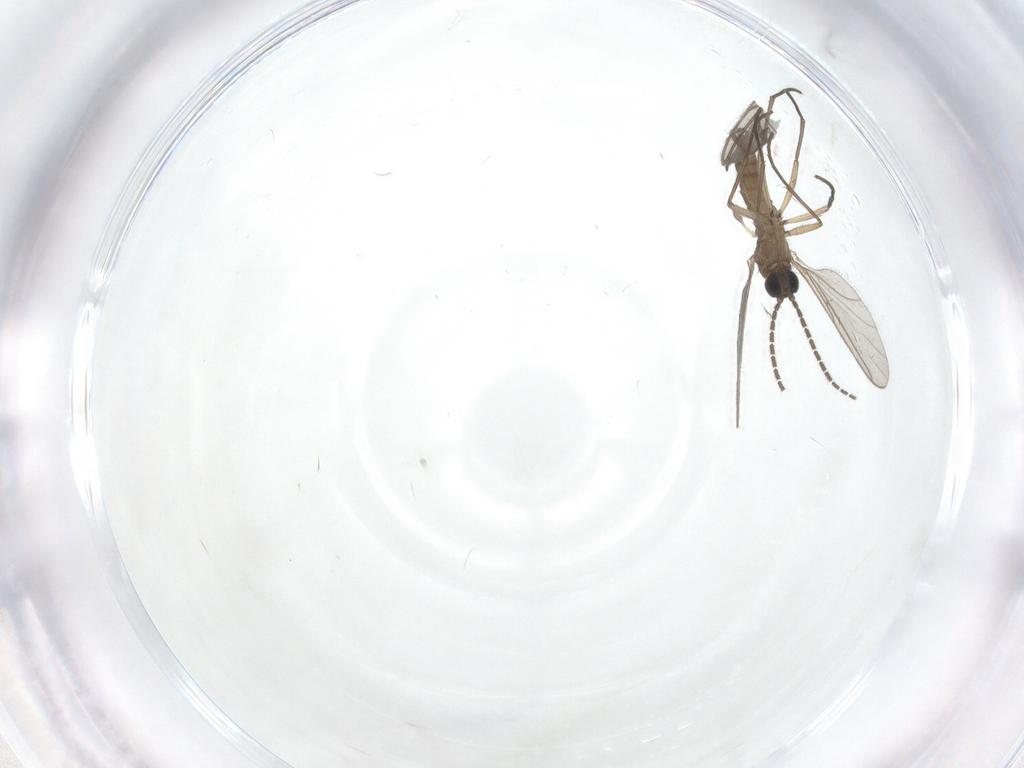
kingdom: Animalia
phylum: Arthropoda
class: Insecta
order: Diptera
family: Sciaridae
